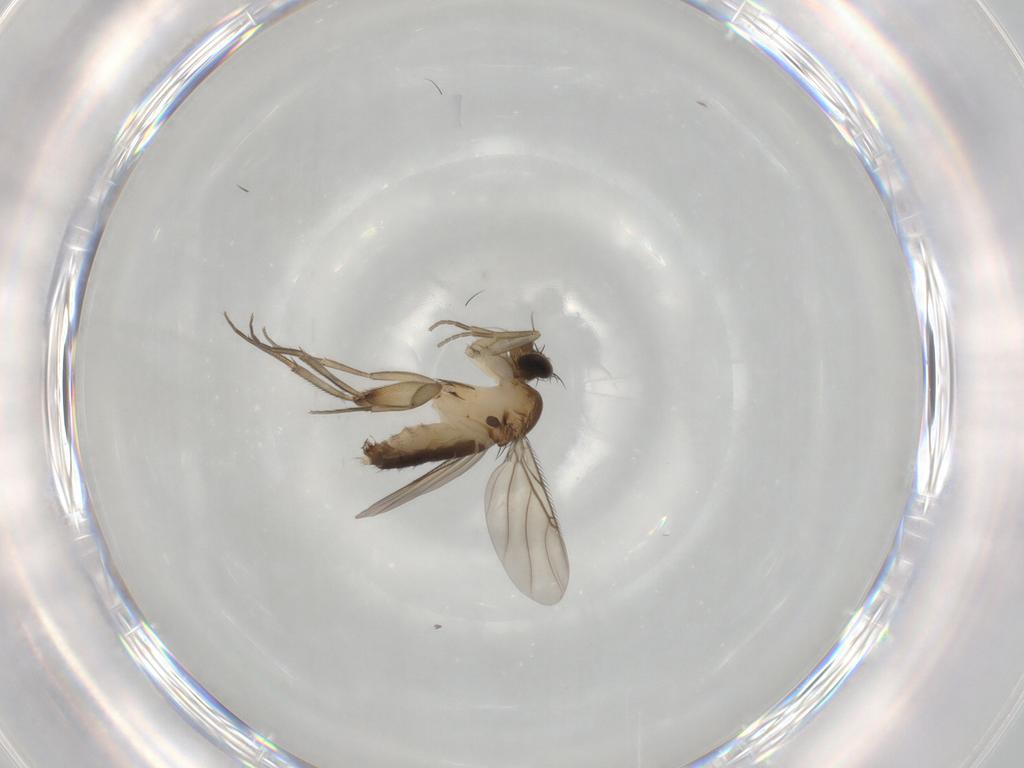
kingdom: Animalia
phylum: Arthropoda
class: Insecta
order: Diptera
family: Phoridae
